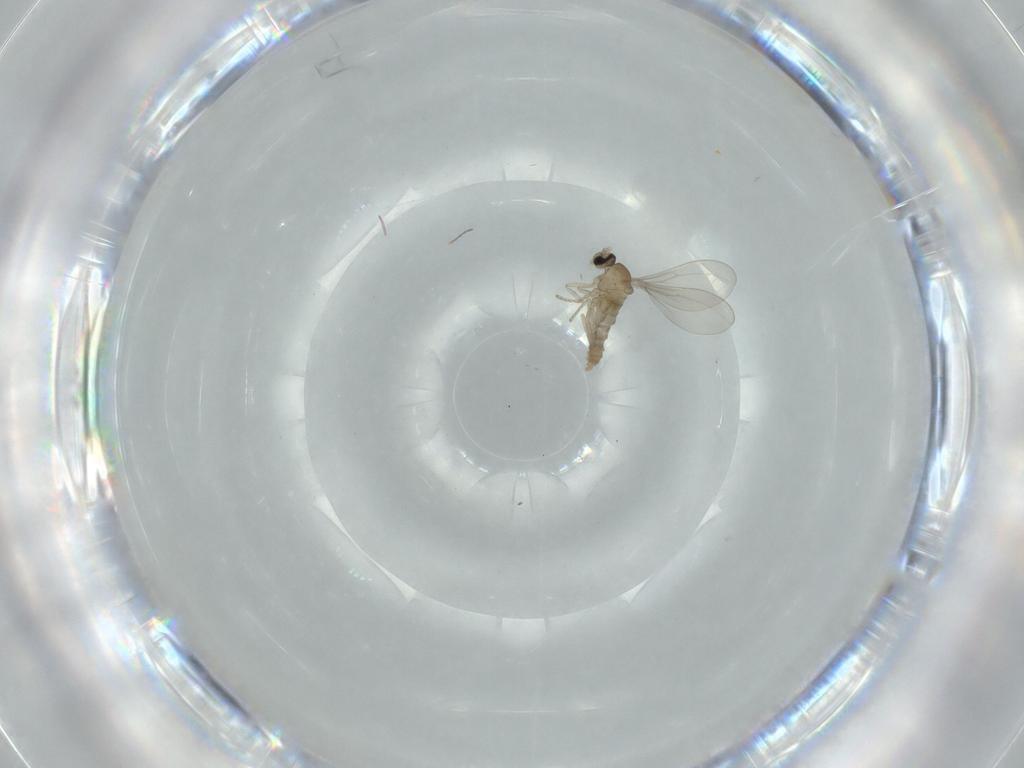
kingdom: Animalia
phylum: Arthropoda
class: Insecta
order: Diptera
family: Cecidomyiidae
